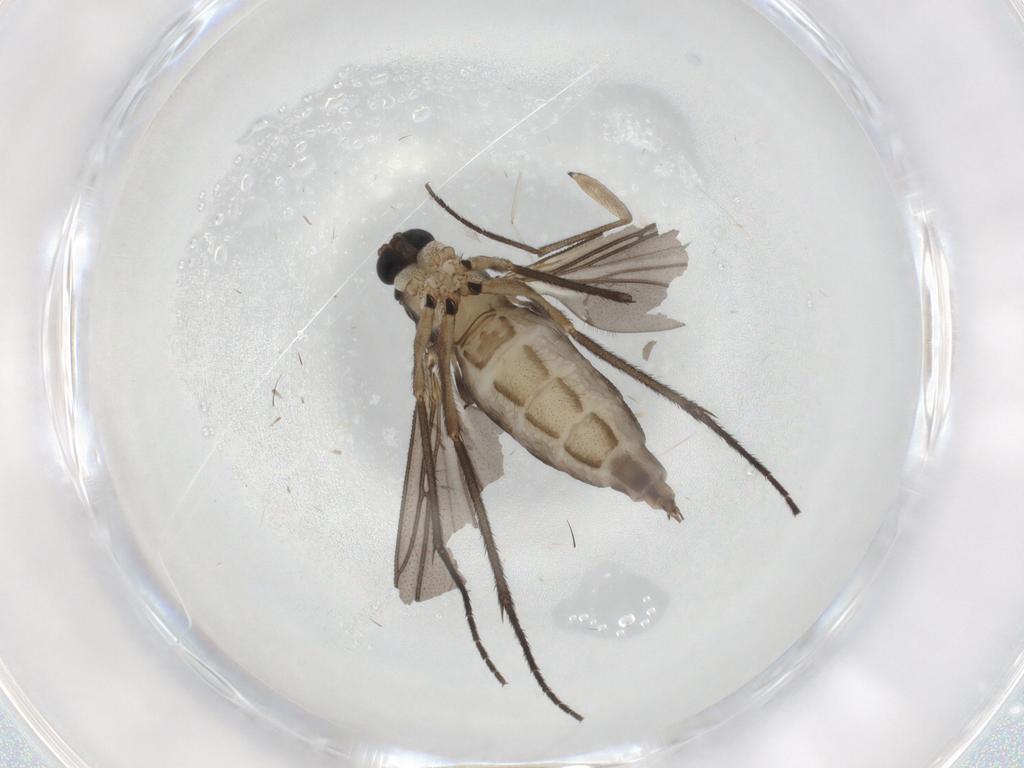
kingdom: Animalia
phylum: Arthropoda
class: Insecta
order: Diptera
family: Sciaridae
